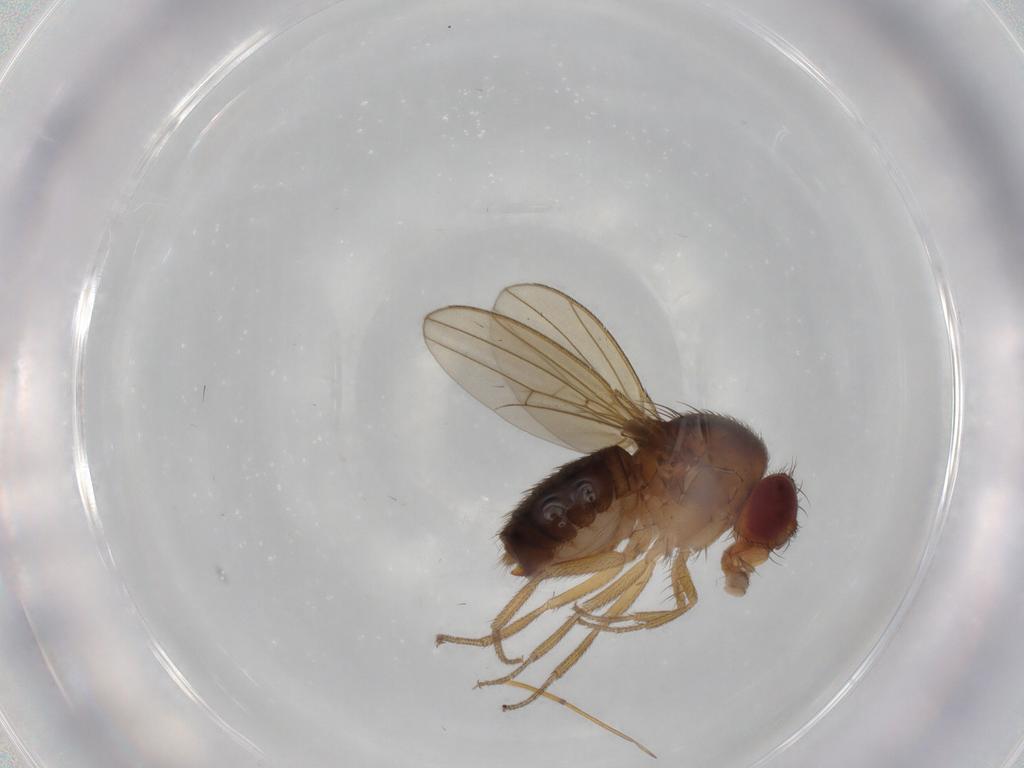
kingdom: Animalia
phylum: Arthropoda
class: Insecta
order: Diptera
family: Drosophilidae
